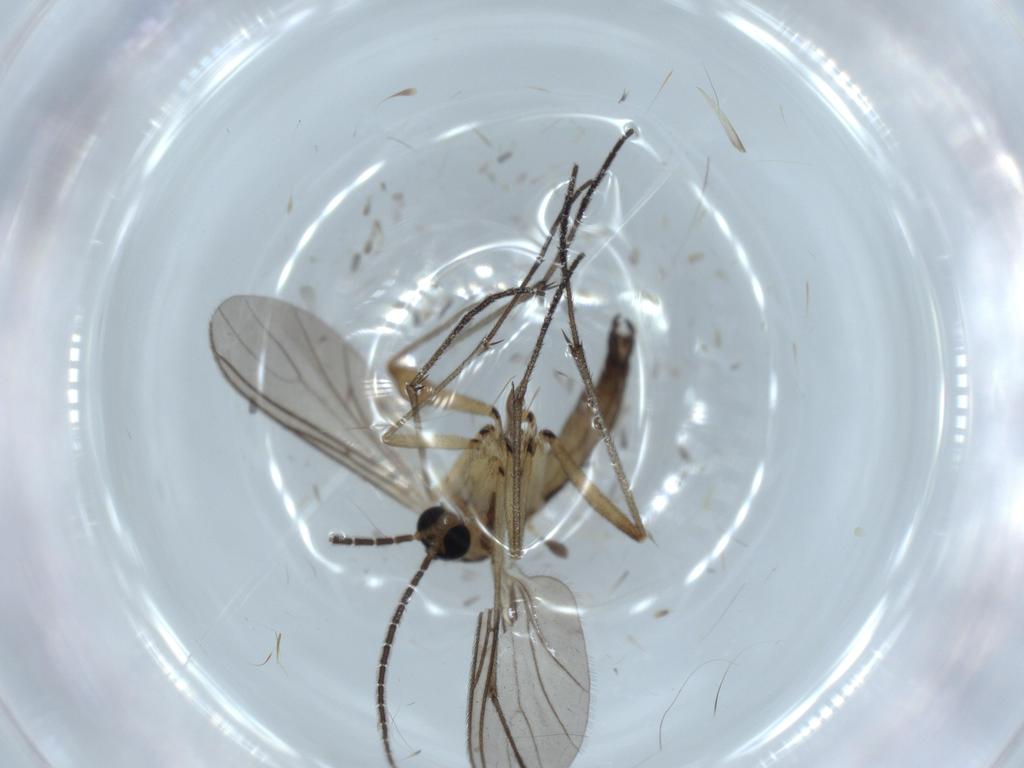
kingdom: Animalia
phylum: Arthropoda
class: Insecta
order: Diptera
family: Sciaridae
